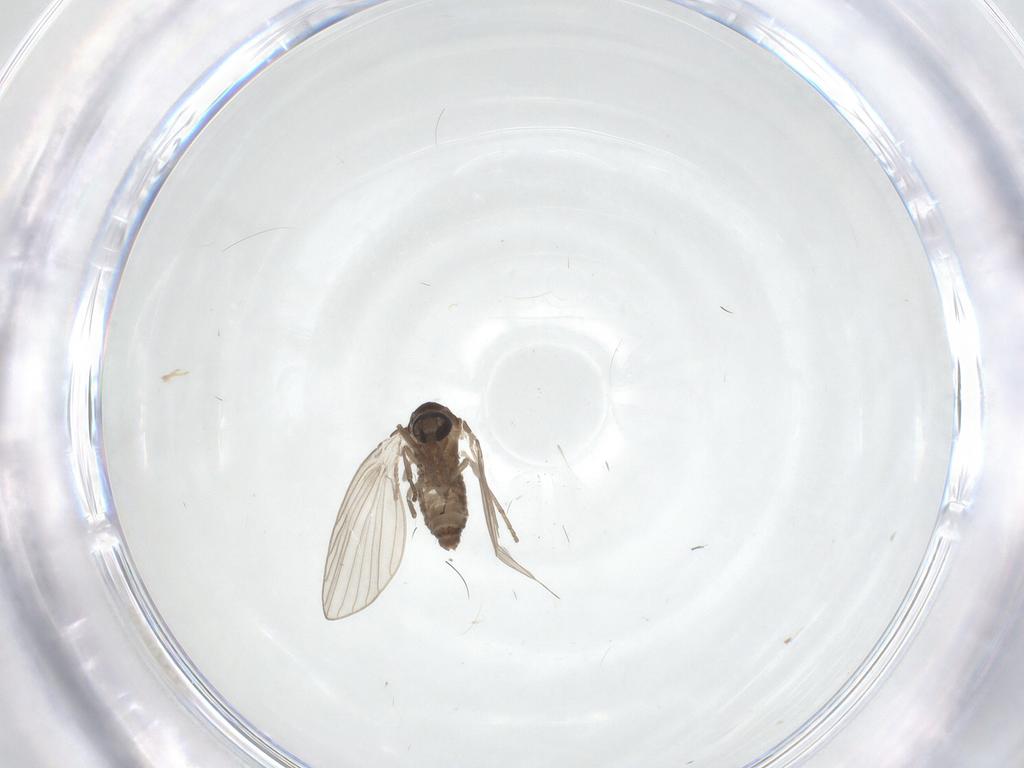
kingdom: Animalia
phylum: Arthropoda
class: Insecta
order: Diptera
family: Psychodidae
